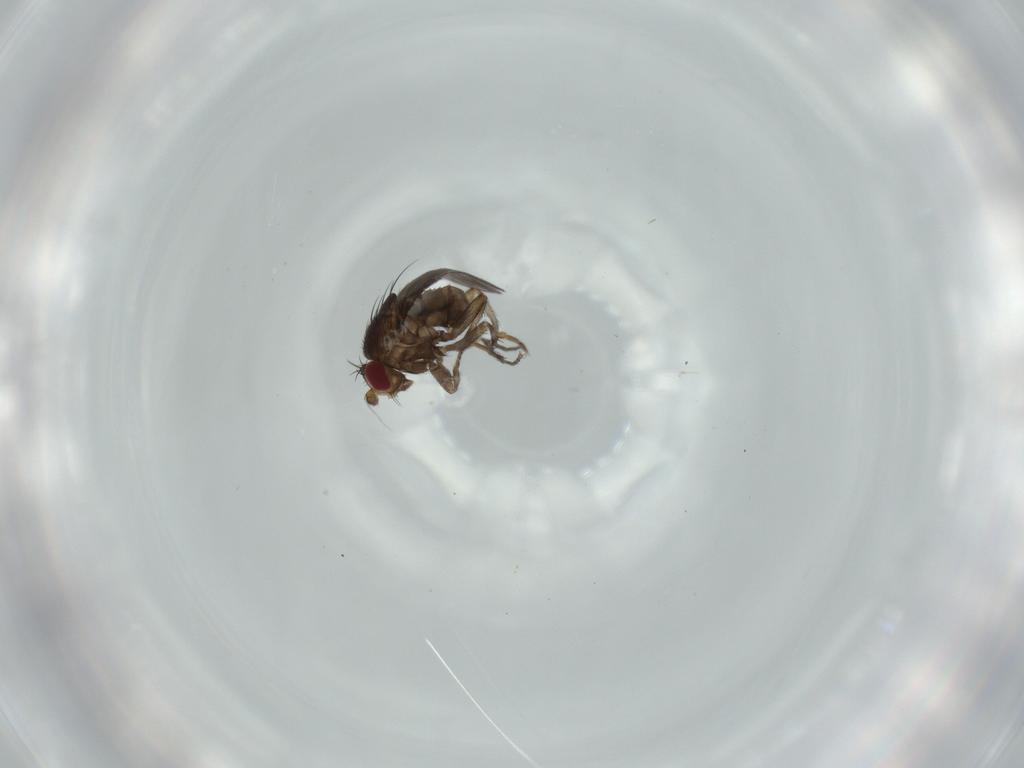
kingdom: Animalia
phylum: Arthropoda
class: Insecta
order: Diptera
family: Sphaeroceridae
